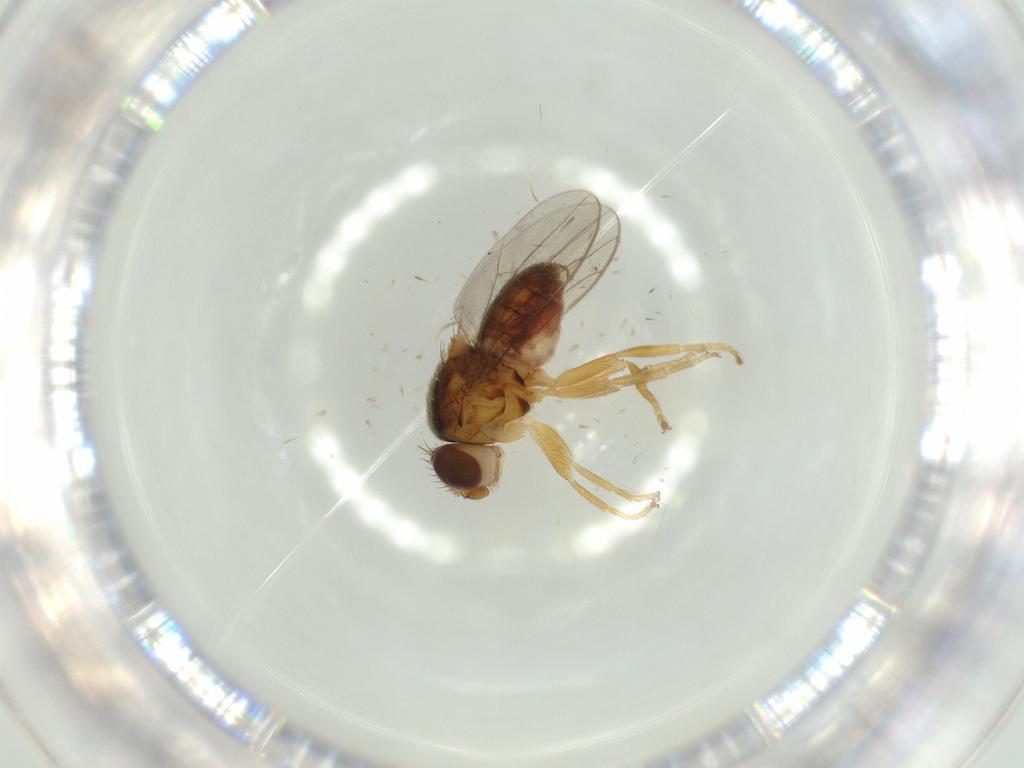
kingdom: Animalia
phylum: Arthropoda
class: Insecta
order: Diptera
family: Chloropidae
